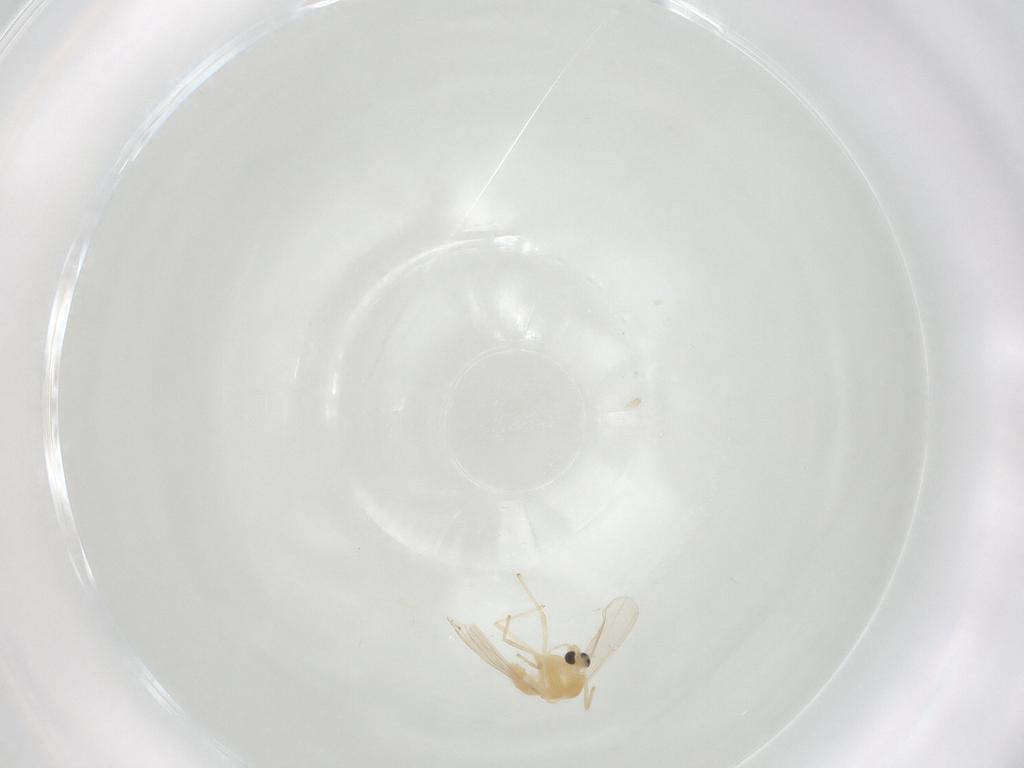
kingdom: Animalia
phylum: Arthropoda
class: Insecta
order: Diptera
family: Chironomidae
